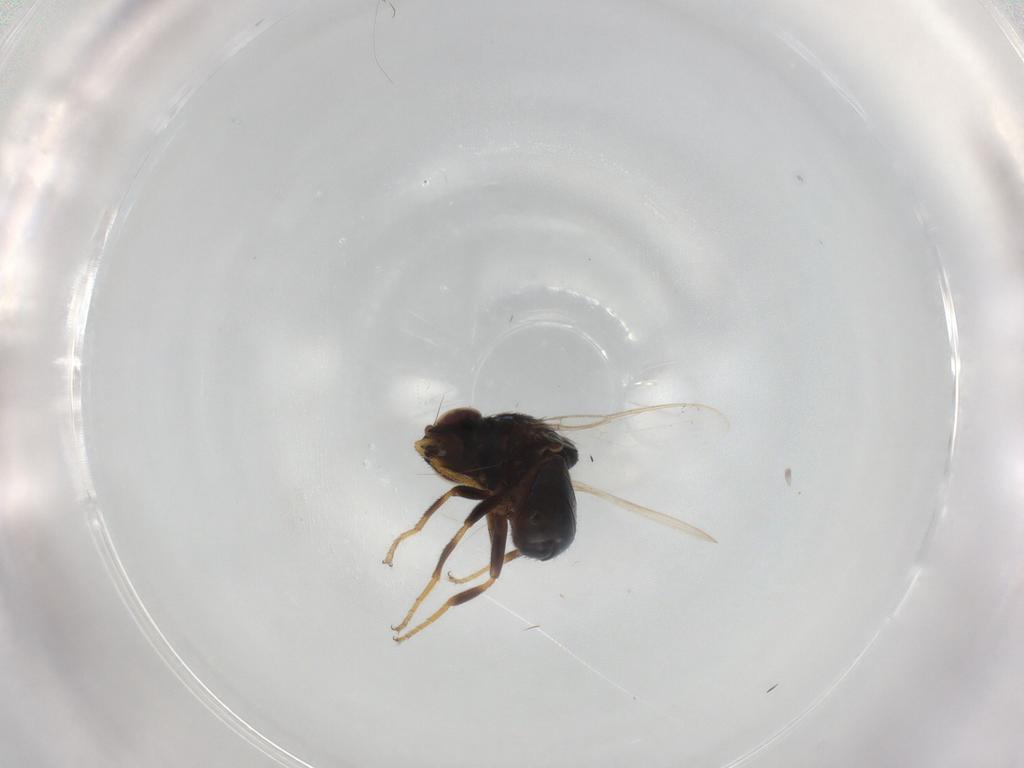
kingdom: Animalia
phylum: Arthropoda
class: Insecta
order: Diptera
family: Chloropidae
